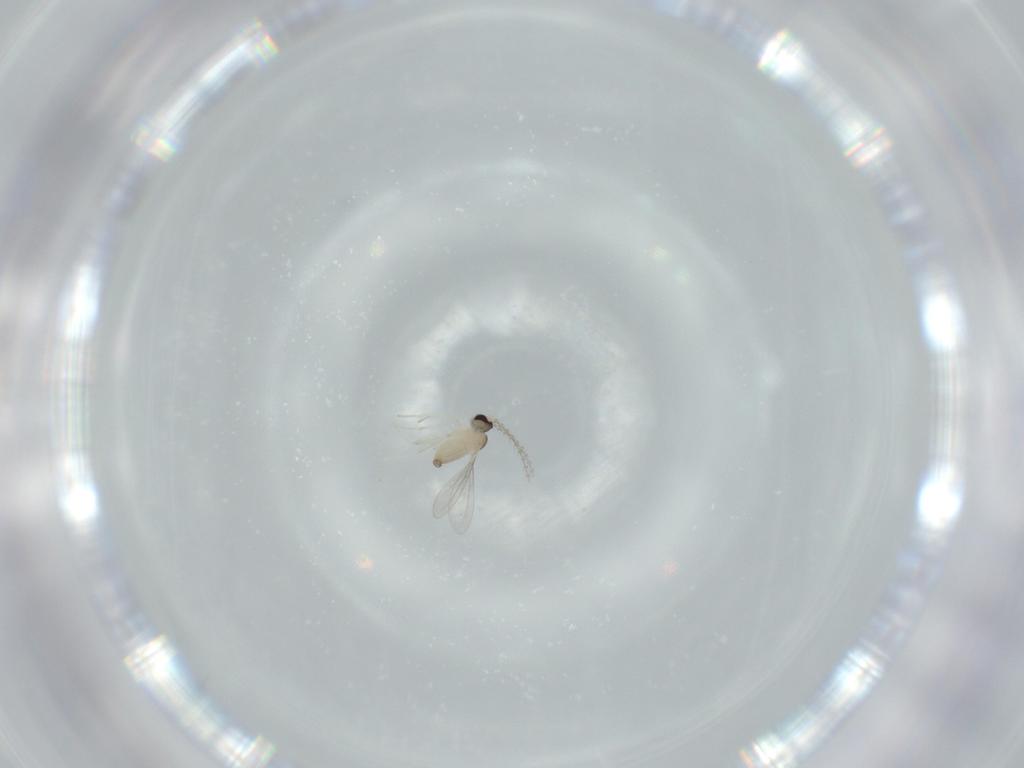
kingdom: Animalia
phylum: Arthropoda
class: Insecta
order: Diptera
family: Cecidomyiidae
